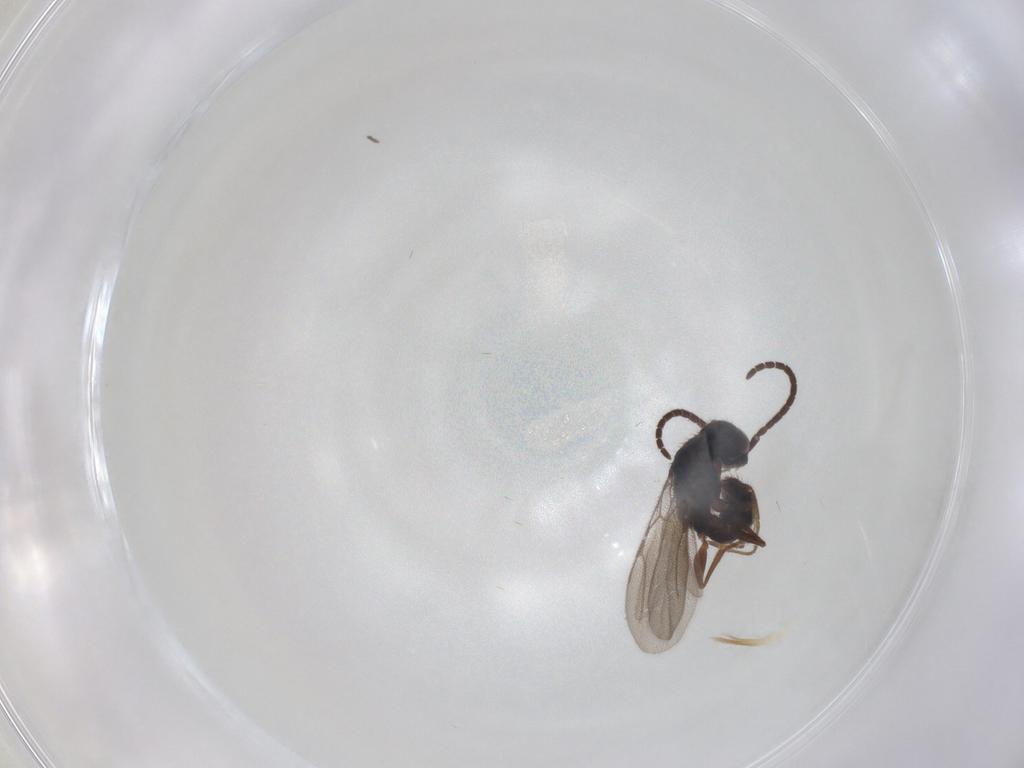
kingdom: Animalia
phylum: Arthropoda
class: Insecta
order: Hymenoptera
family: Bethylidae
